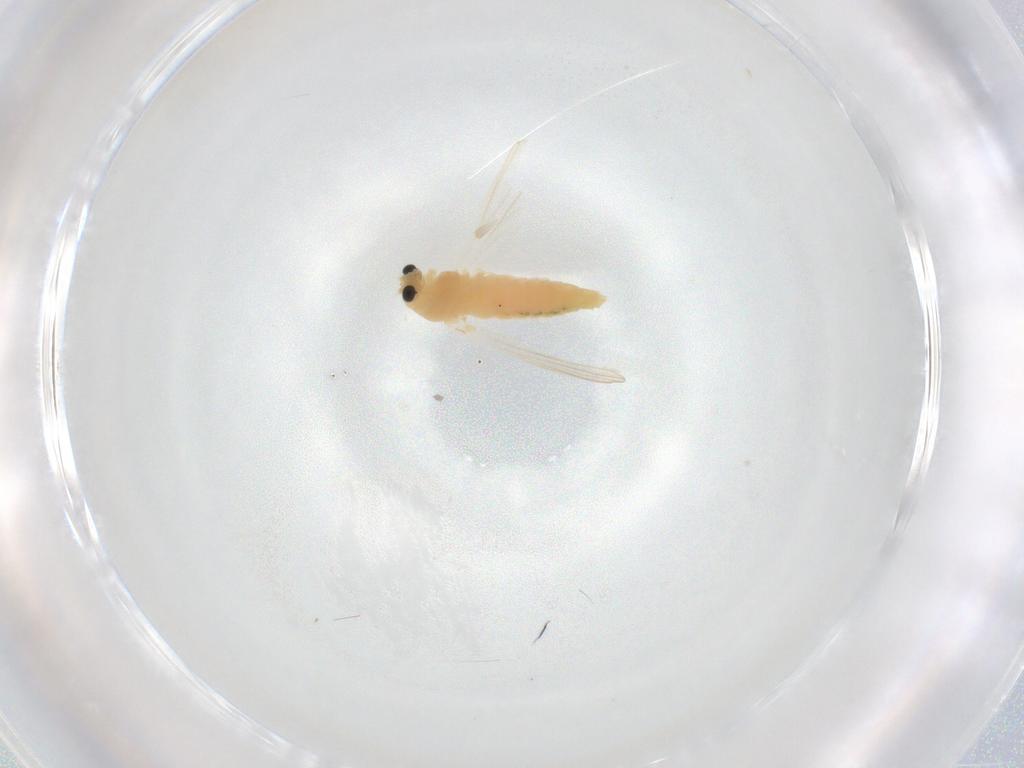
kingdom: Animalia
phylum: Arthropoda
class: Insecta
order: Diptera
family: Chironomidae
